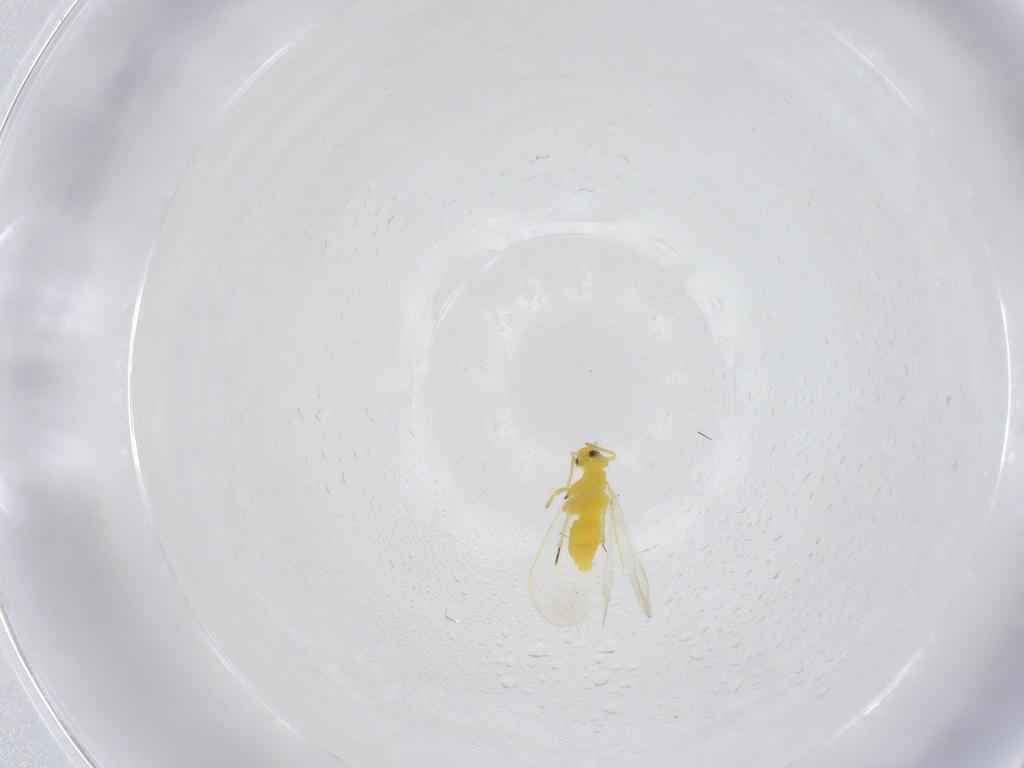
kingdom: Animalia
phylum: Arthropoda
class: Insecta
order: Hemiptera
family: Aleyrodidae
